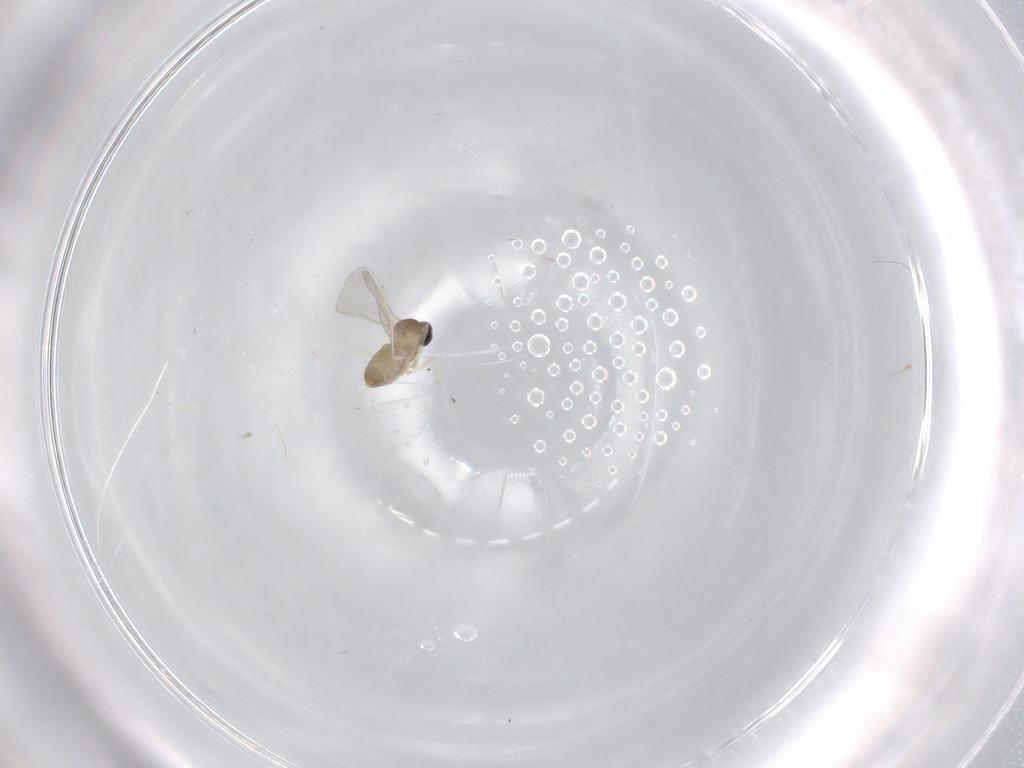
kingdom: Animalia
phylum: Arthropoda
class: Insecta
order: Diptera
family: Cecidomyiidae
